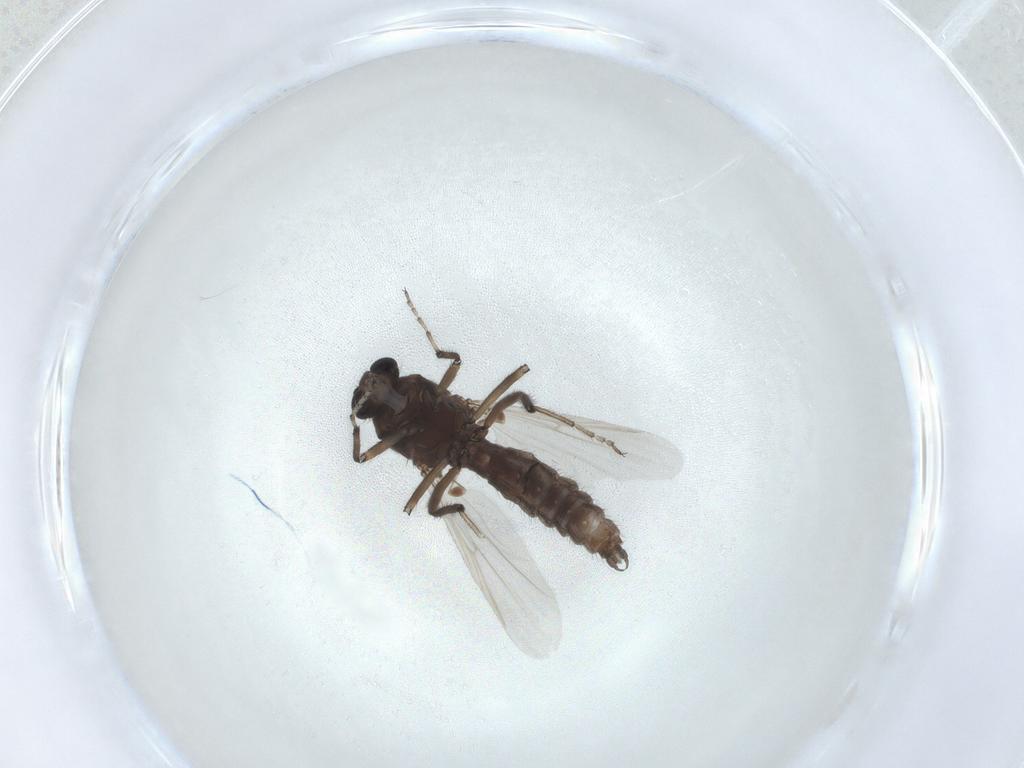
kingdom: Animalia
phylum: Arthropoda
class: Insecta
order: Diptera
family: Ceratopogonidae
